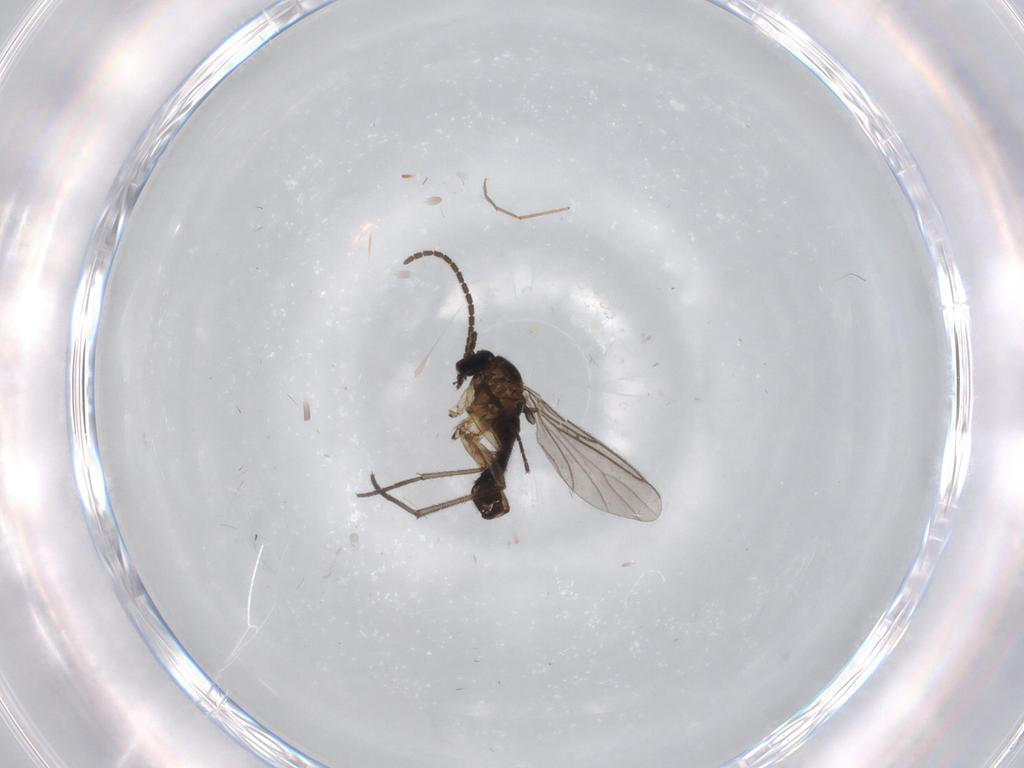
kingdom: Animalia
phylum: Arthropoda
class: Insecta
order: Diptera
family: Sciaridae
